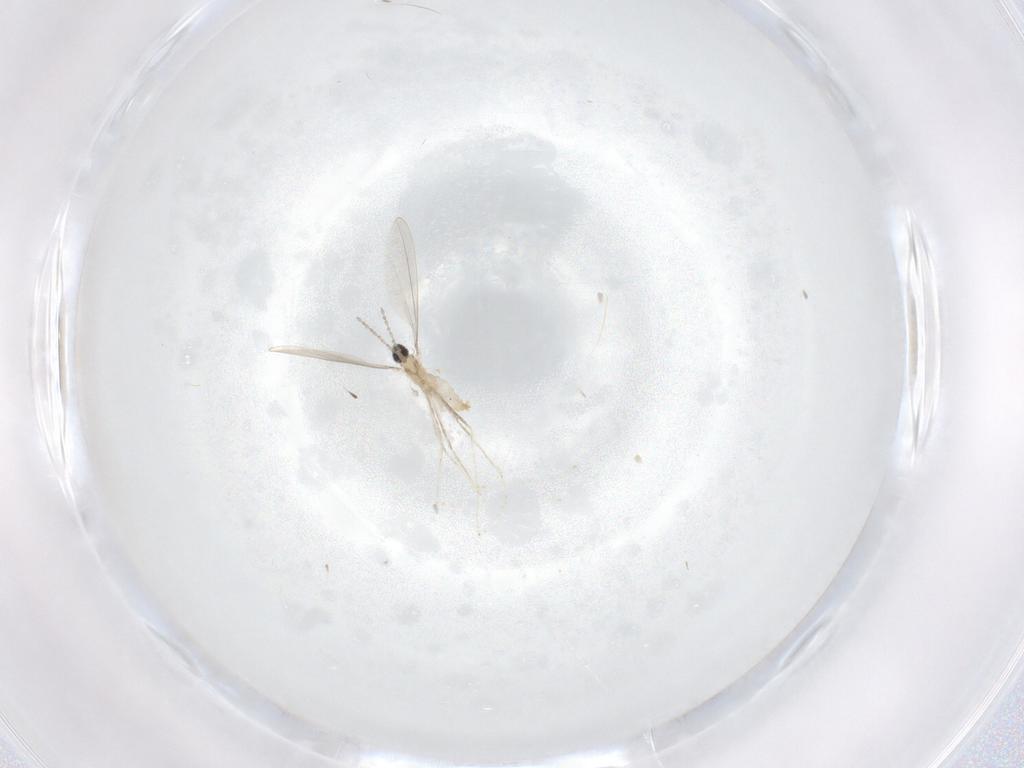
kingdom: Animalia
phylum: Arthropoda
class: Insecta
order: Diptera
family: Cecidomyiidae
